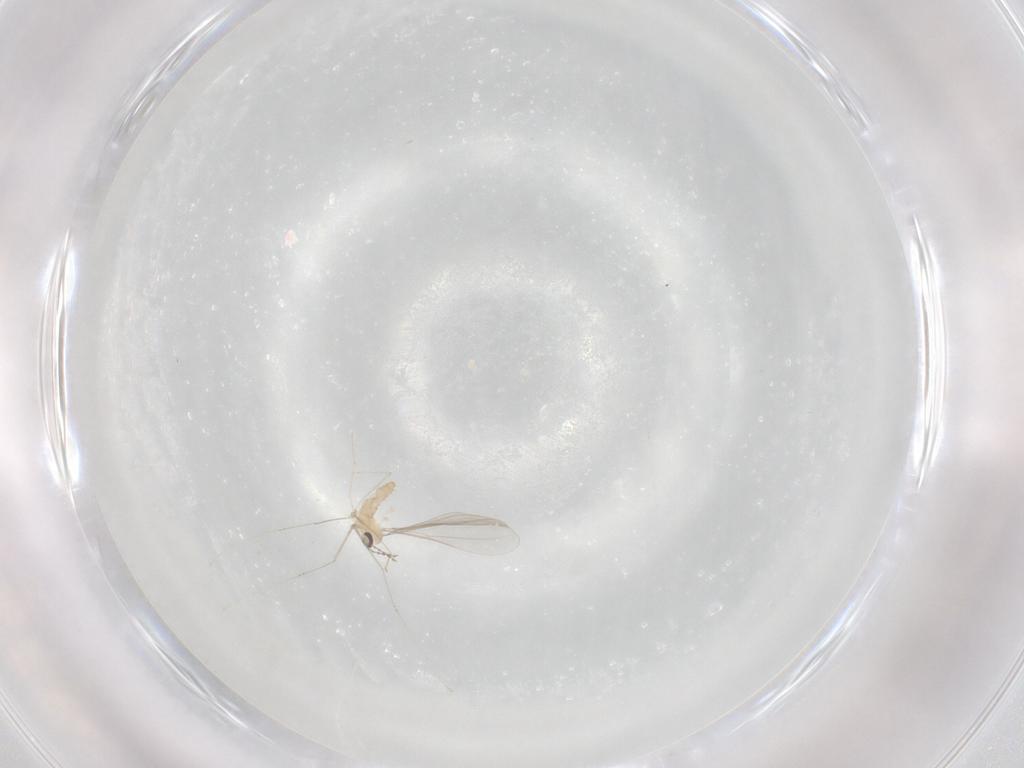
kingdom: Animalia
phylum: Arthropoda
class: Insecta
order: Diptera
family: Cecidomyiidae
